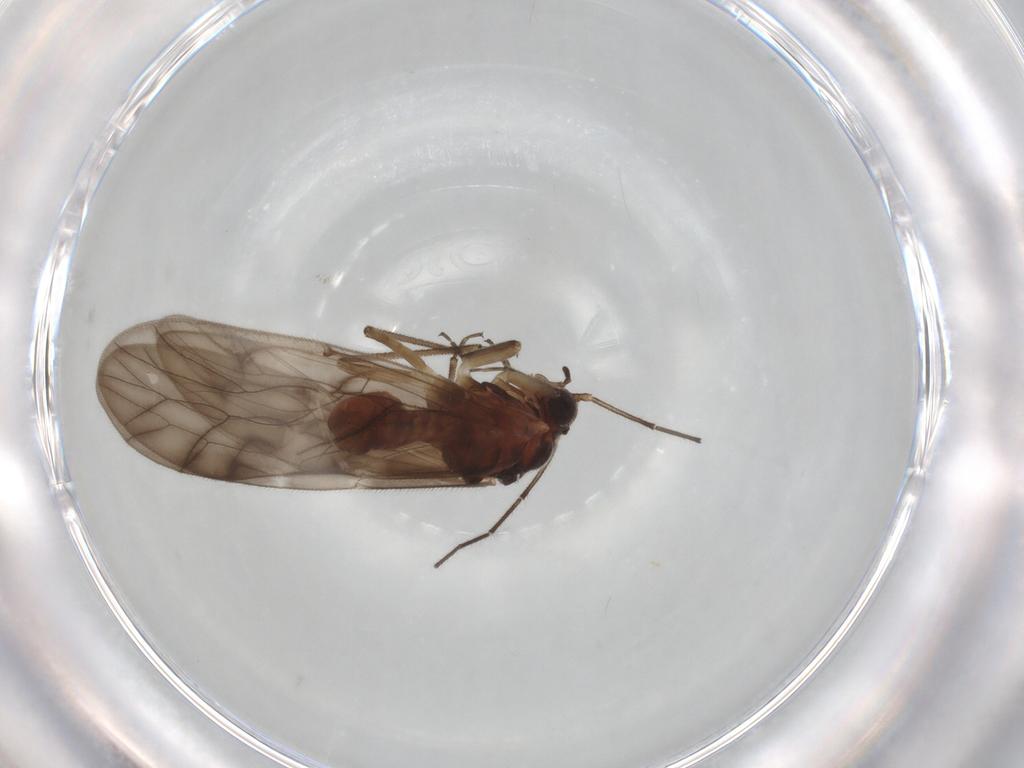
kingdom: Animalia
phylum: Arthropoda
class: Insecta
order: Psocodea
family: Caeciliusidae
